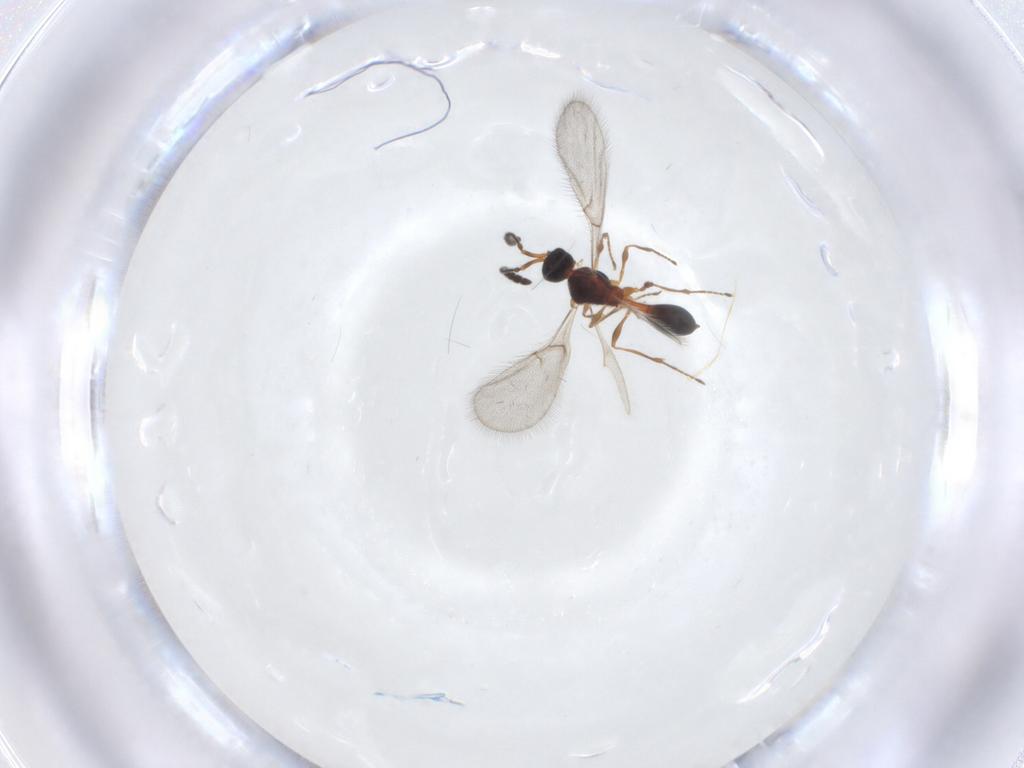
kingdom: Animalia
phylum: Arthropoda
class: Insecta
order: Hymenoptera
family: Diapriidae
